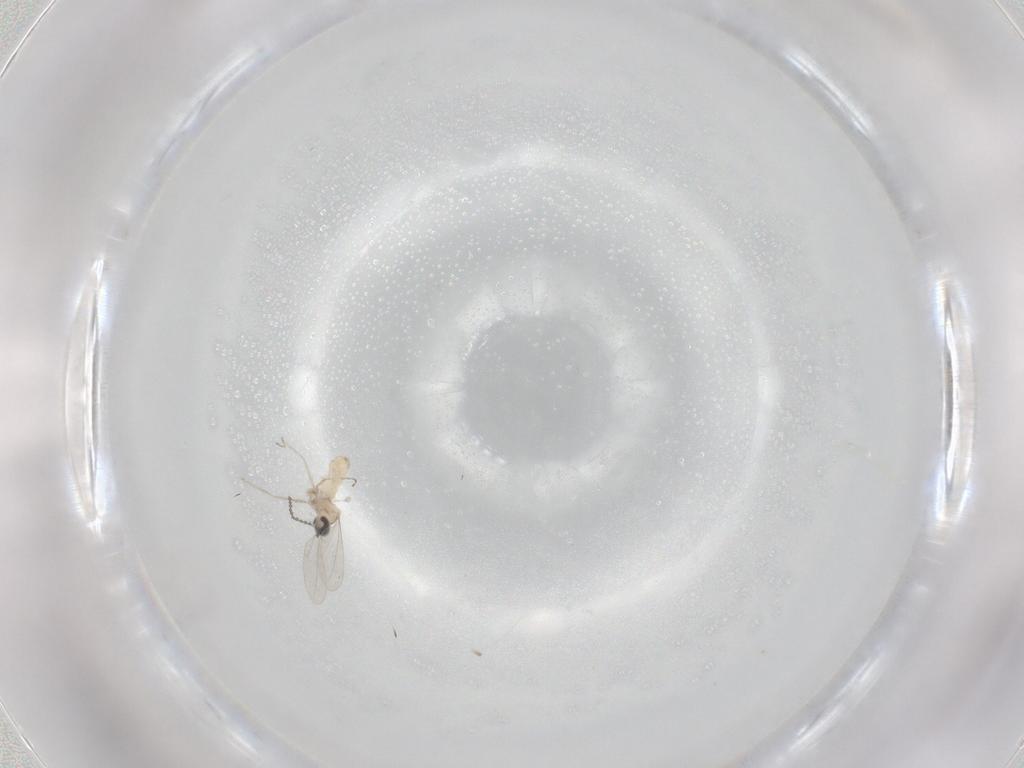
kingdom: Animalia
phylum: Arthropoda
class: Insecta
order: Diptera
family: Cecidomyiidae
